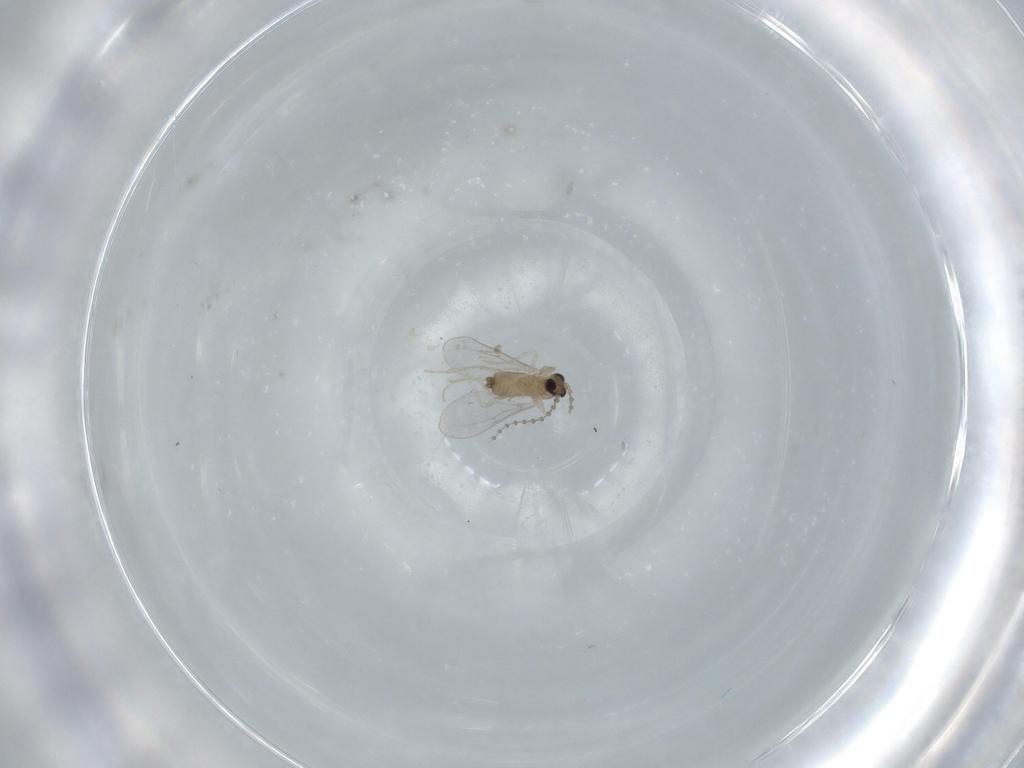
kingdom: Animalia
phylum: Arthropoda
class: Insecta
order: Diptera
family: Cecidomyiidae
